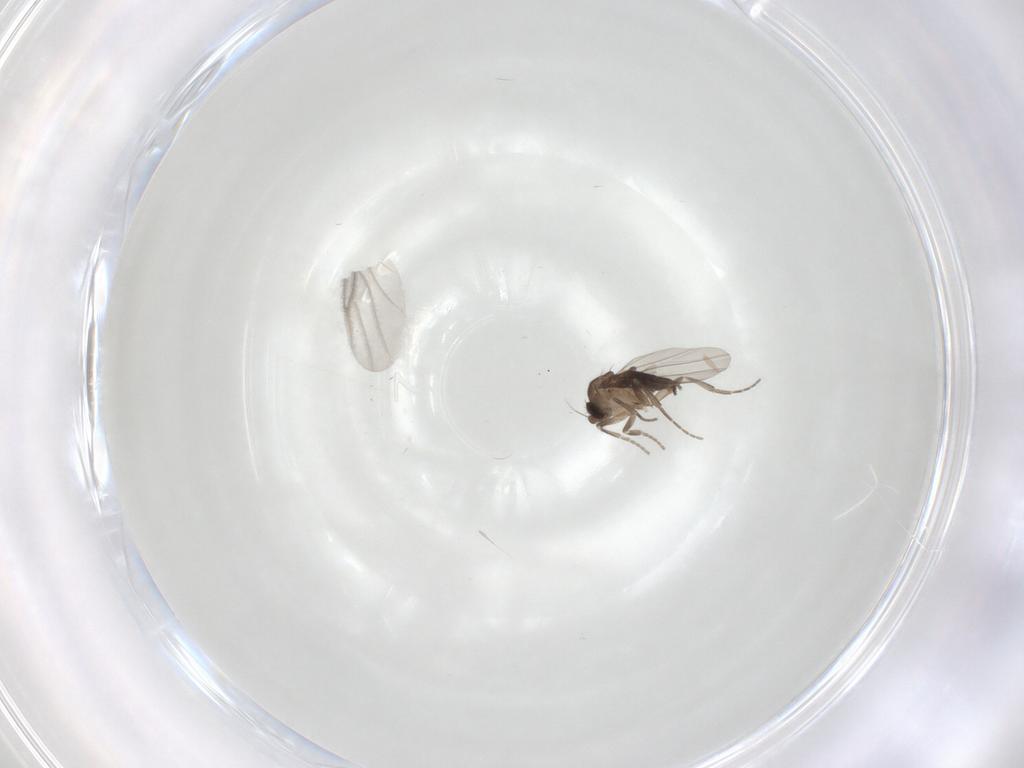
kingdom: Animalia
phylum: Arthropoda
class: Insecta
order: Diptera
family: Phoridae
